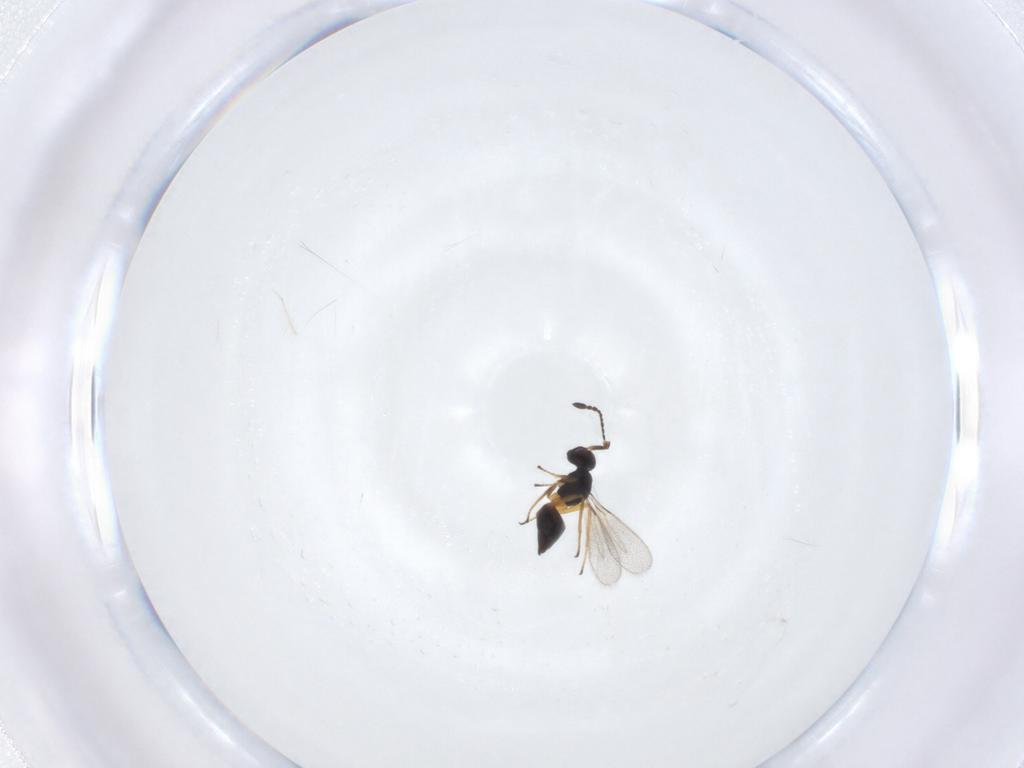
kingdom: Animalia
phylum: Arthropoda
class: Insecta
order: Hymenoptera
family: Mymaridae
